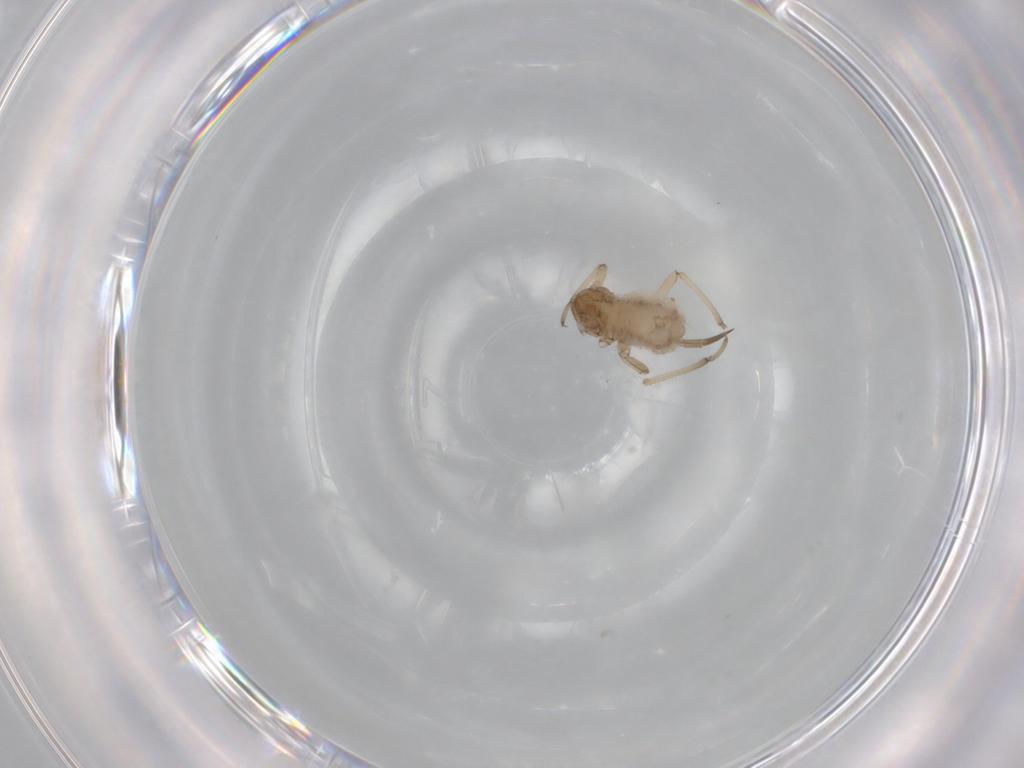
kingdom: Animalia
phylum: Arthropoda
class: Insecta
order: Hemiptera
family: Aphididae
